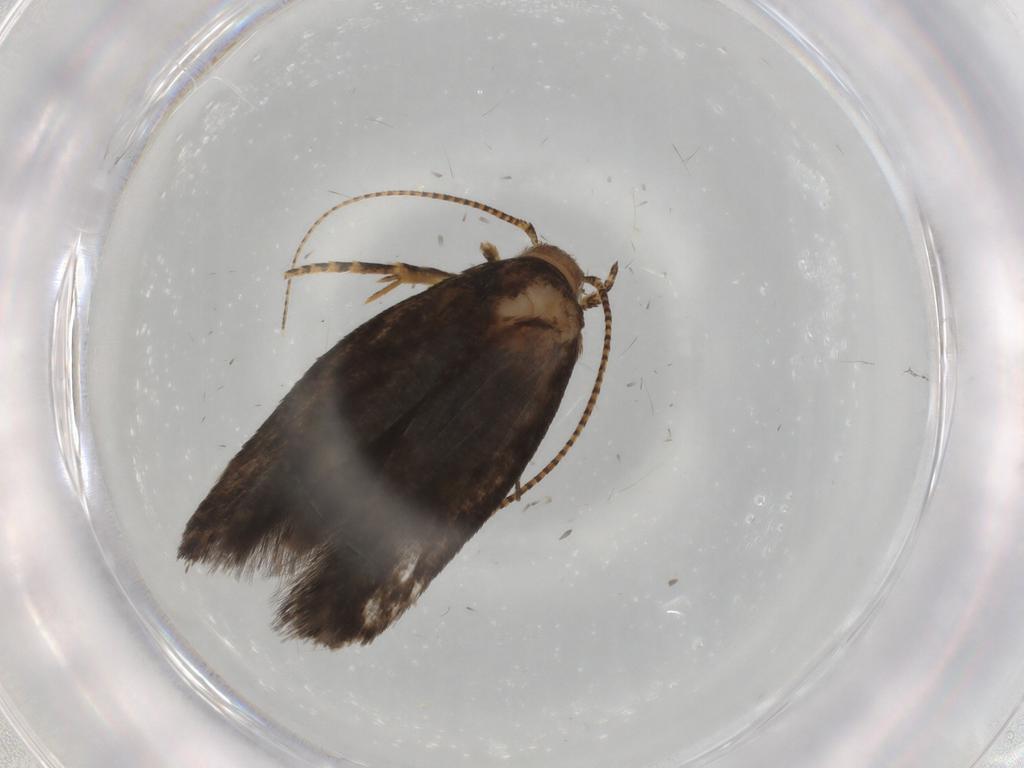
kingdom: Animalia
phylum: Arthropoda
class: Insecta
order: Lepidoptera
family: Gelechiidae
